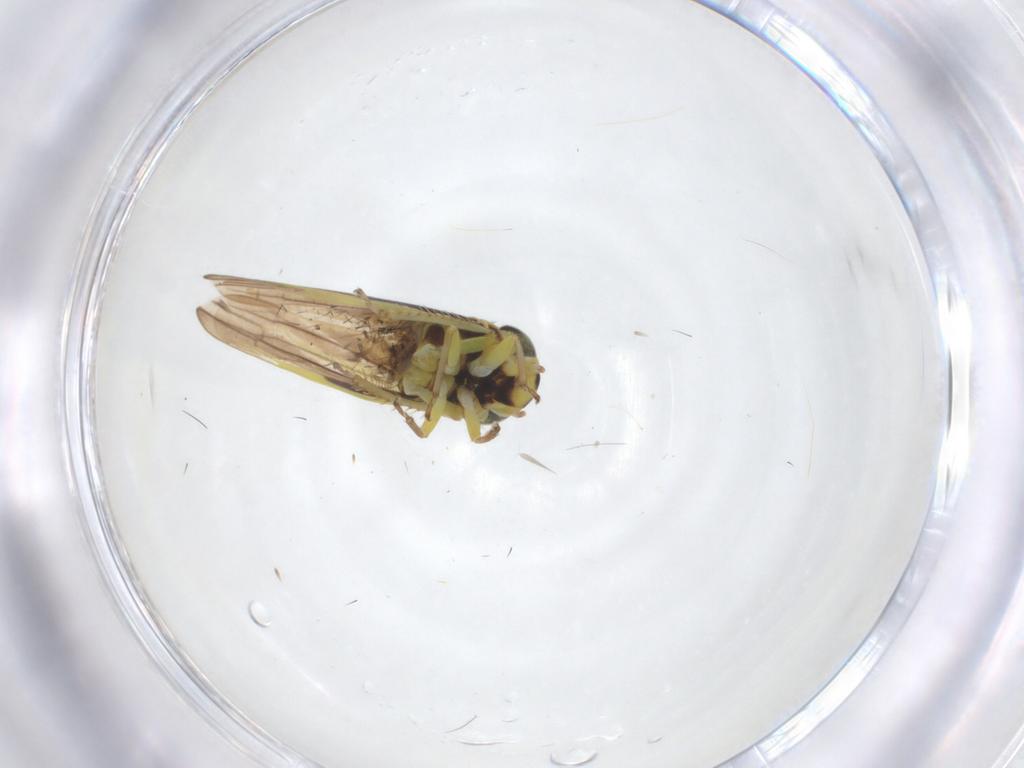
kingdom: Animalia
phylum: Arthropoda
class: Insecta
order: Hemiptera
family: Cicadellidae
